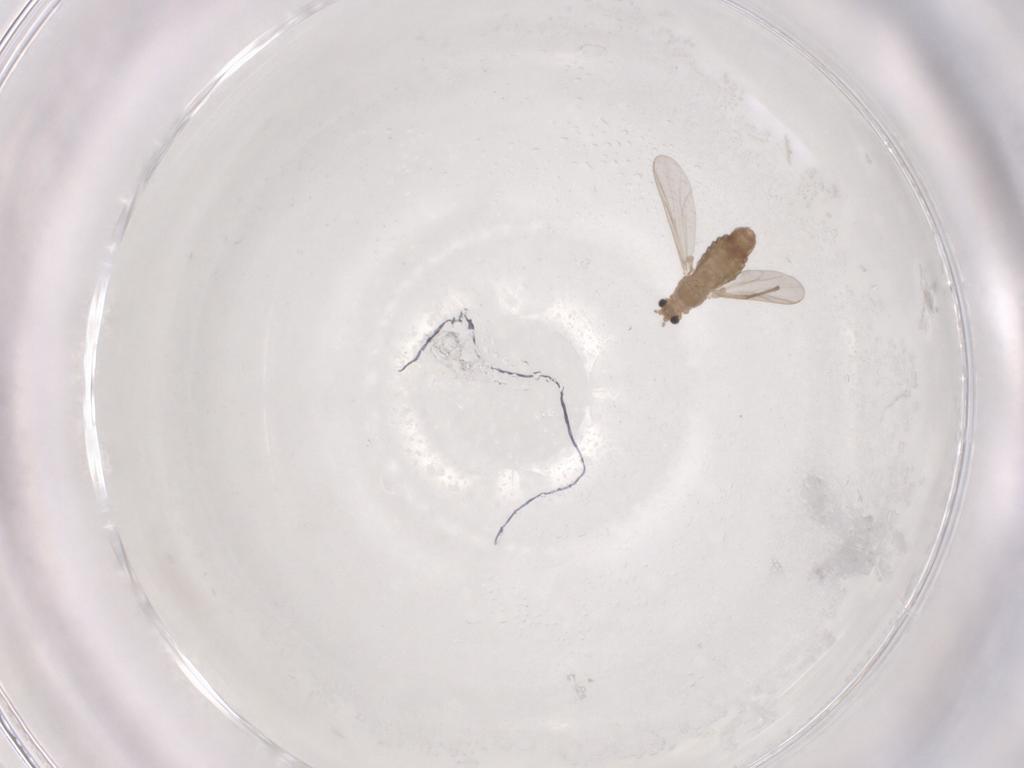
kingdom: Animalia
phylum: Arthropoda
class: Insecta
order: Diptera
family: Chironomidae
